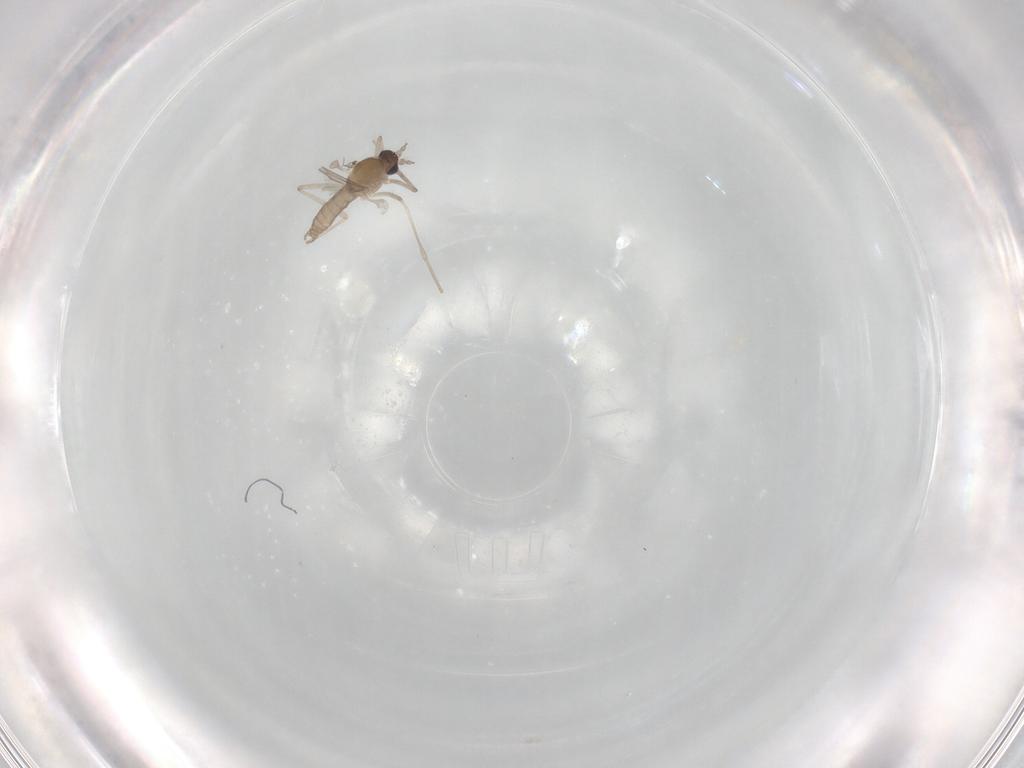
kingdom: Animalia
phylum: Arthropoda
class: Insecta
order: Diptera
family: Cecidomyiidae
